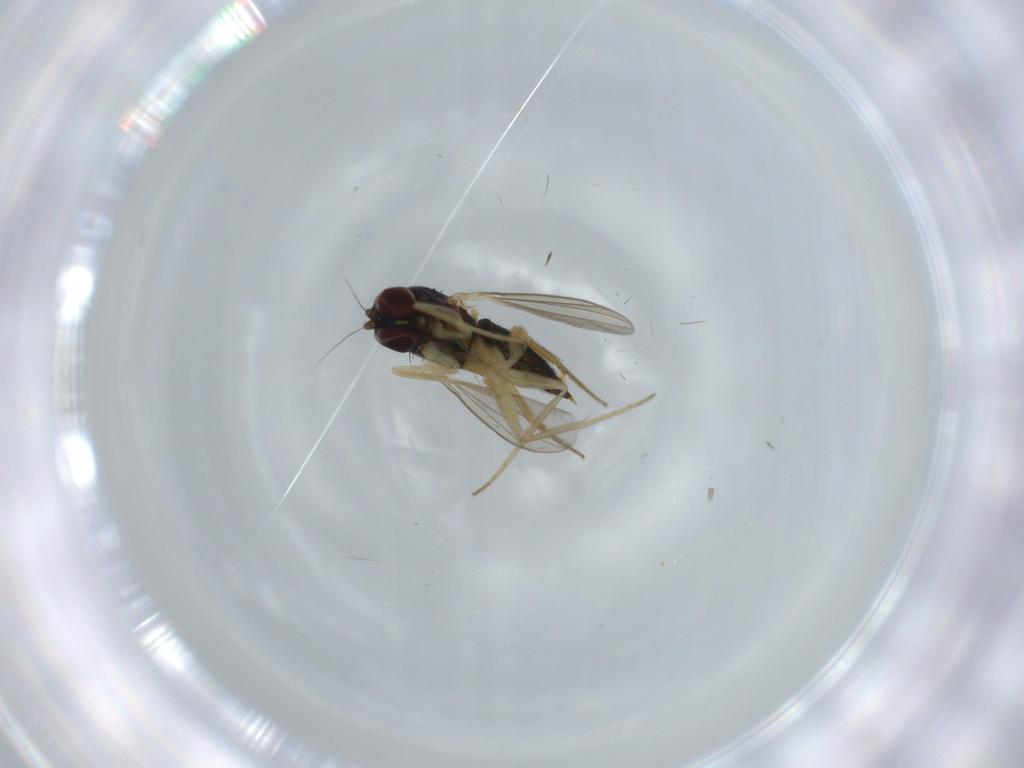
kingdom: Animalia
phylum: Arthropoda
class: Insecta
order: Diptera
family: Dolichopodidae
